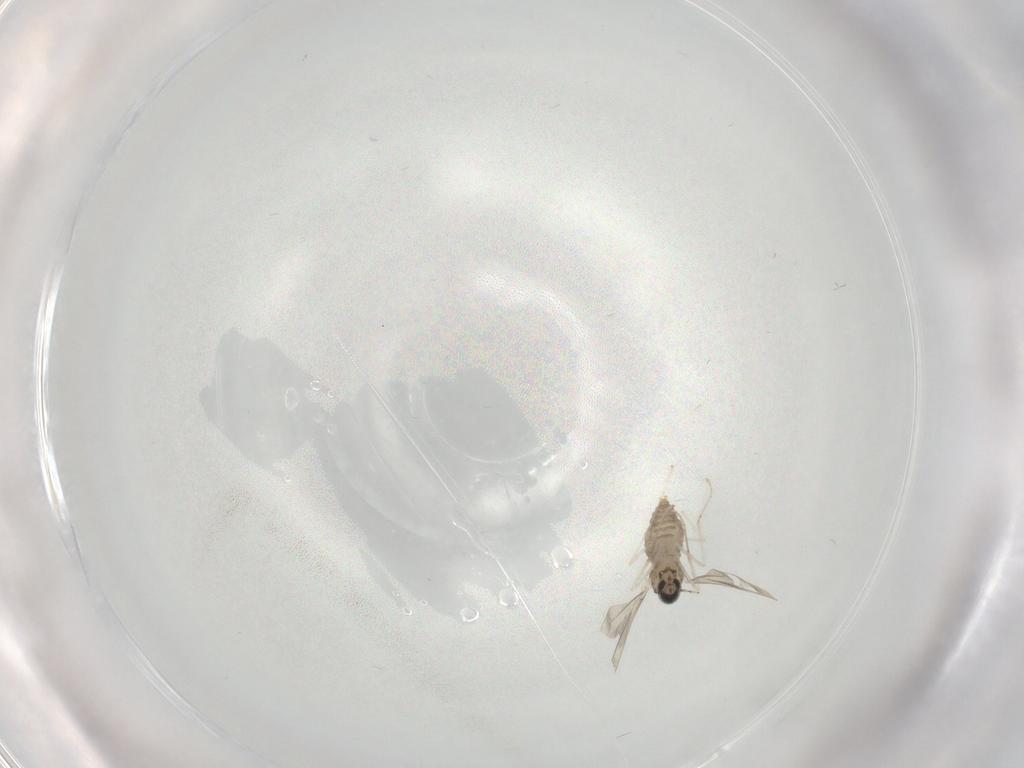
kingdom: Animalia
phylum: Arthropoda
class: Insecta
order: Diptera
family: Cecidomyiidae
